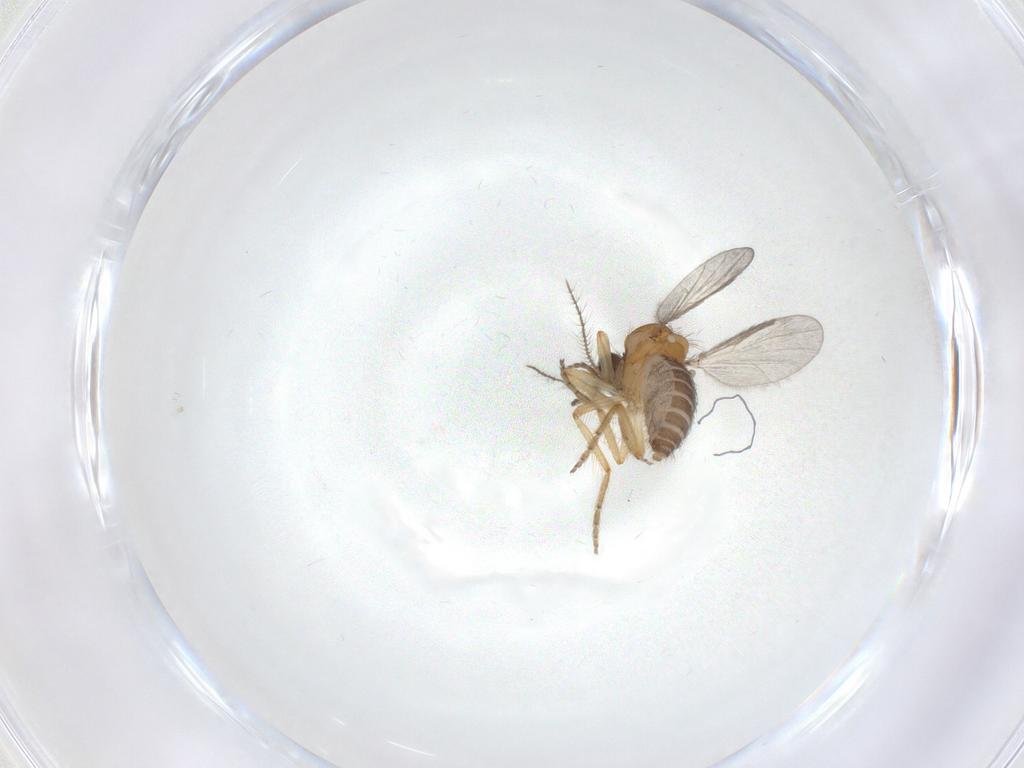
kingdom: Animalia
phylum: Arthropoda
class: Insecta
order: Diptera
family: Ceratopogonidae
